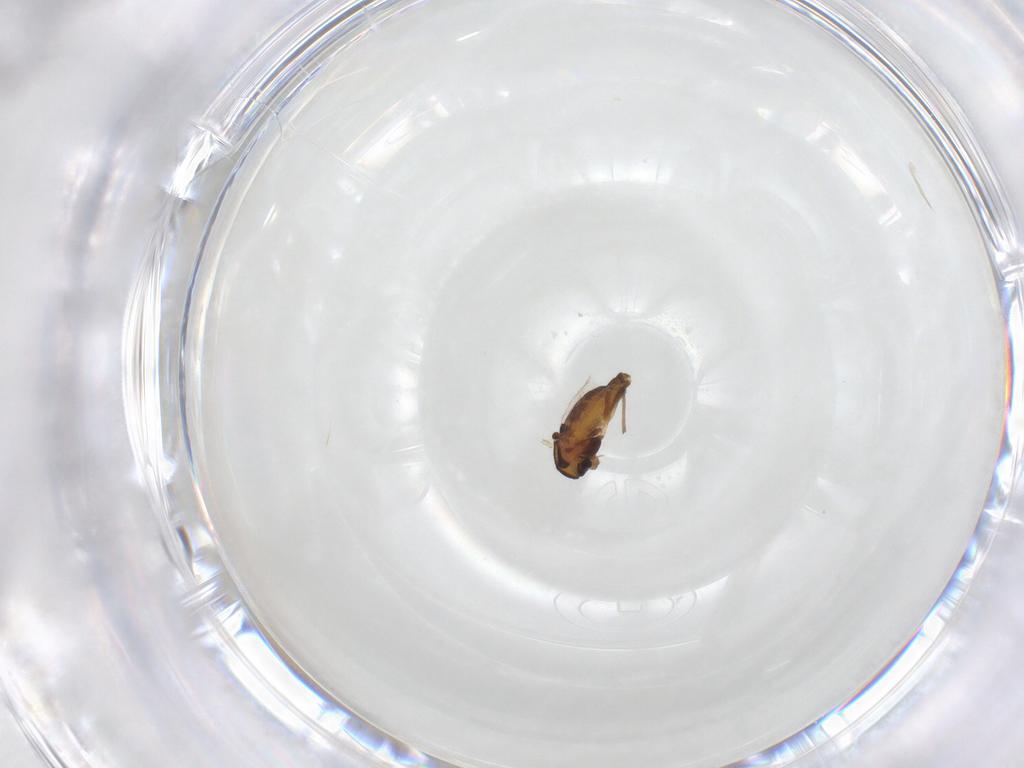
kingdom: Animalia
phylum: Arthropoda
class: Insecta
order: Diptera
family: Chironomidae
